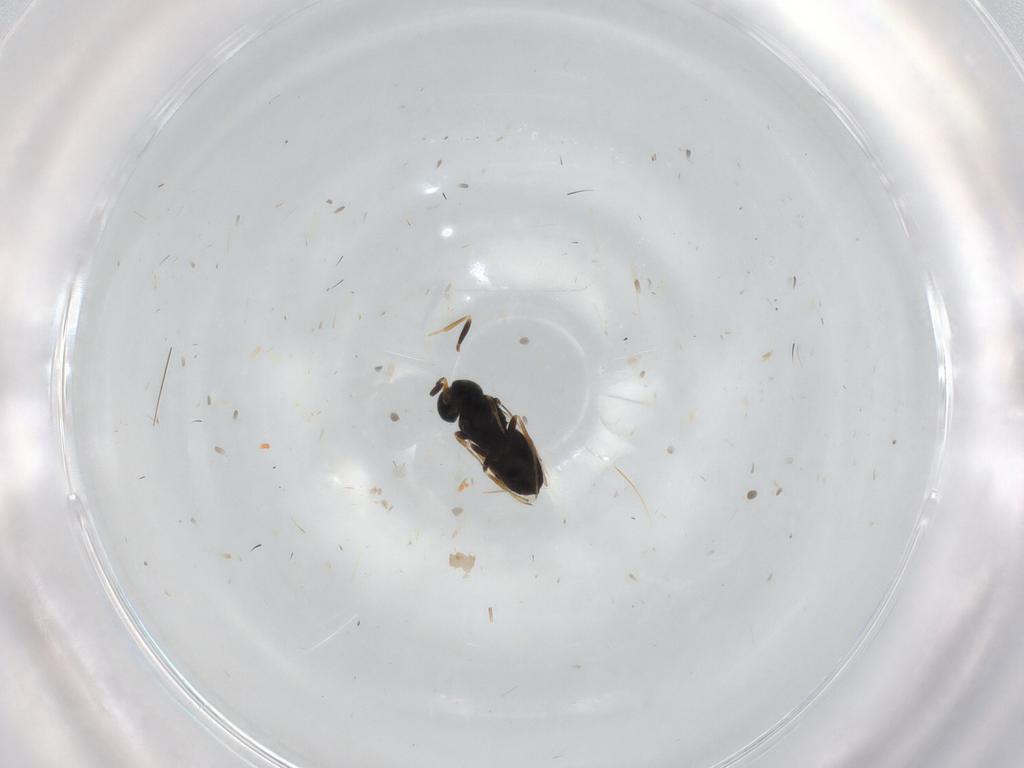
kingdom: Animalia
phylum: Arthropoda
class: Insecta
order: Hymenoptera
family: Scelionidae
